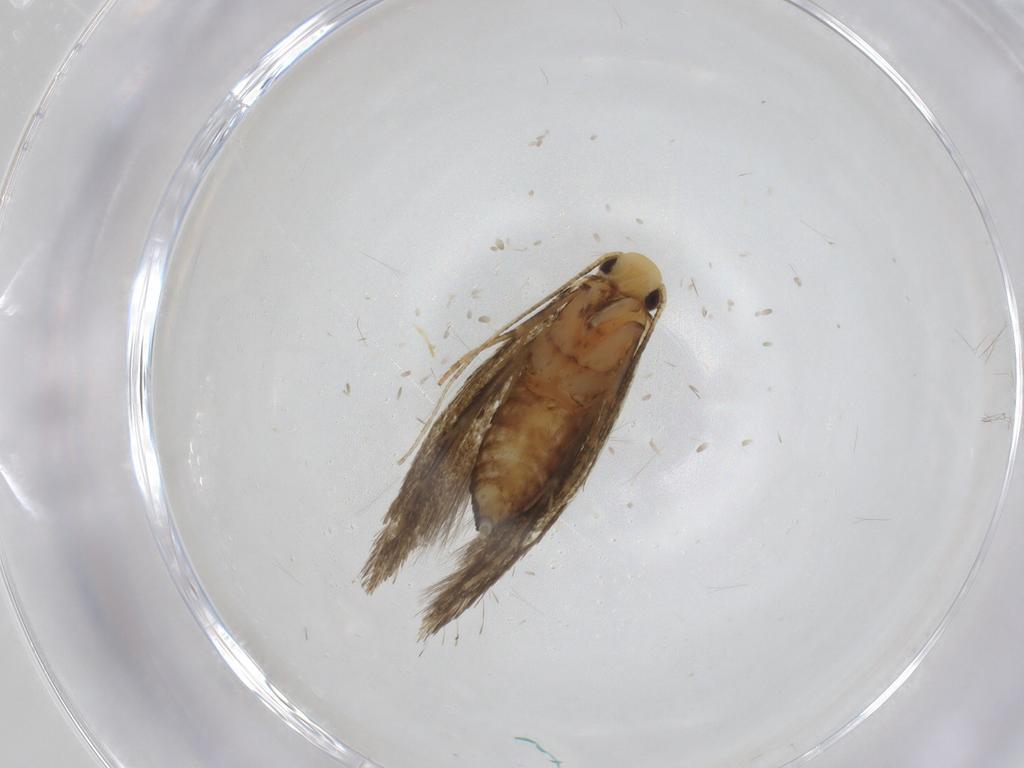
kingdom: Animalia
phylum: Arthropoda
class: Insecta
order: Lepidoptera
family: Tineidae
